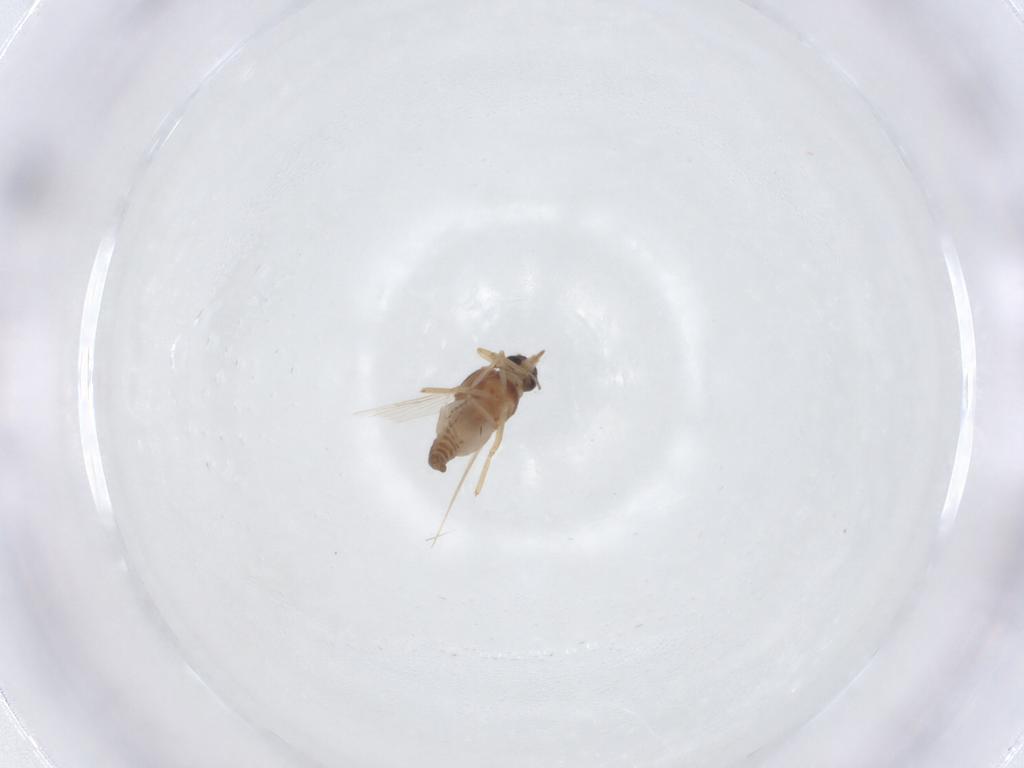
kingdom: Animalia
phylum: Arthropoda
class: Insecta
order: Diptera
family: Ceratopogonidae
